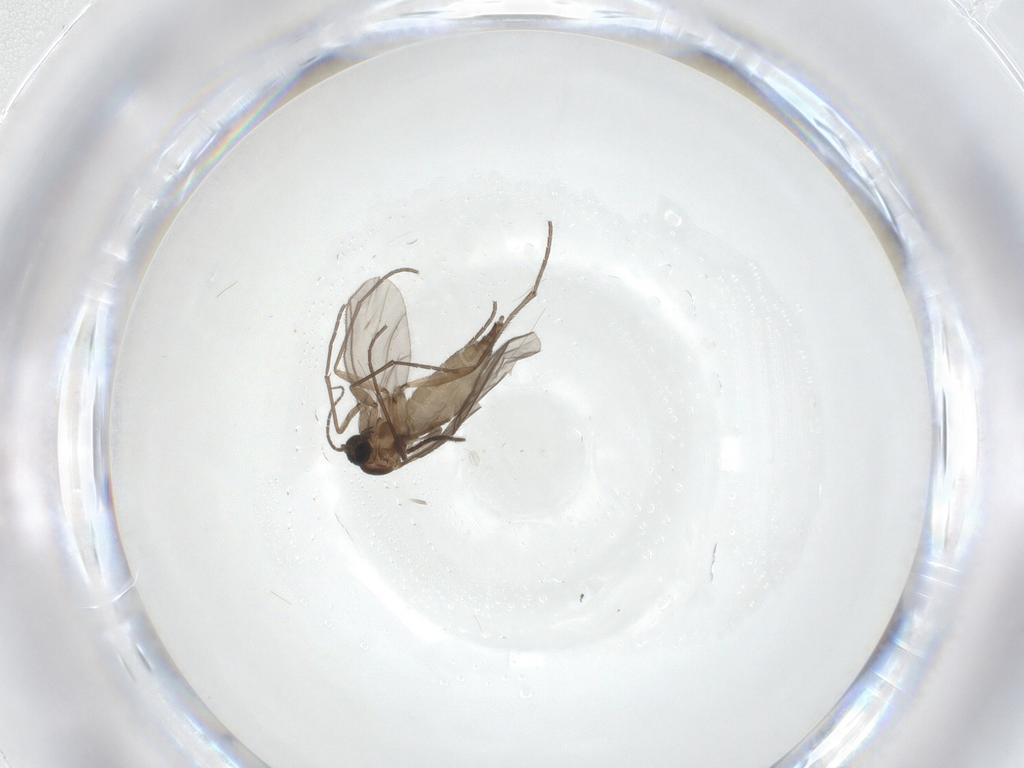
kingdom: Animalia
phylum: Arthropoda
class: Insecta
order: Diptera
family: Sciaridae
